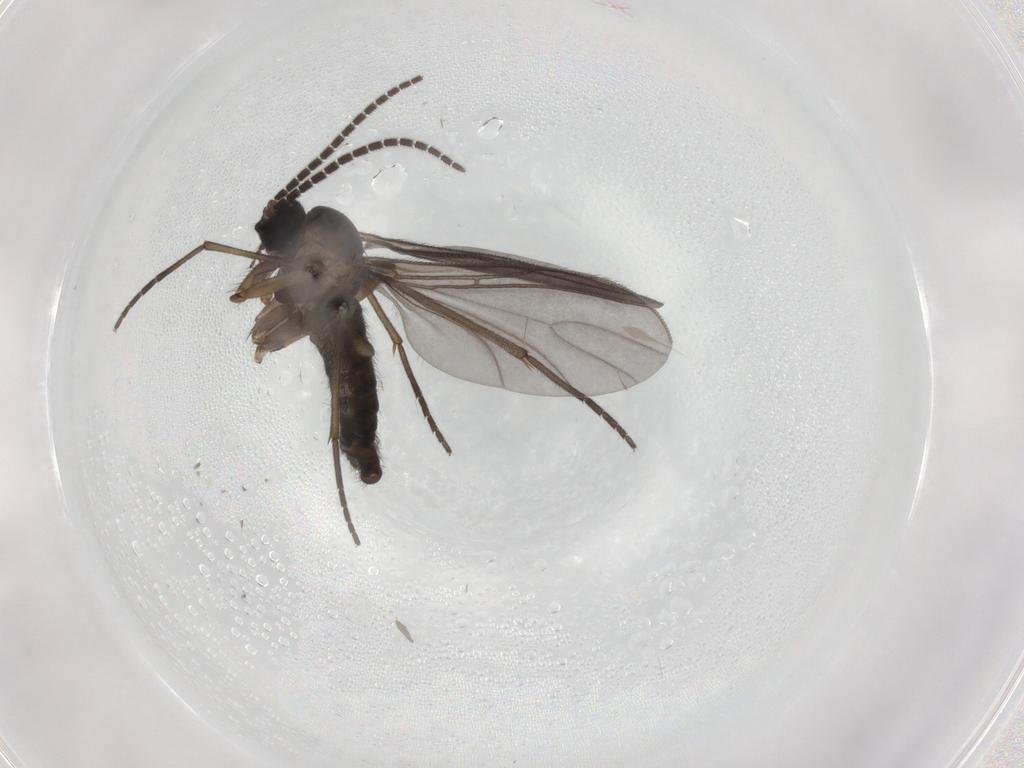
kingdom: Animalia
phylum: Arthropoda
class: Insecta
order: Diptera
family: Sciaridae
